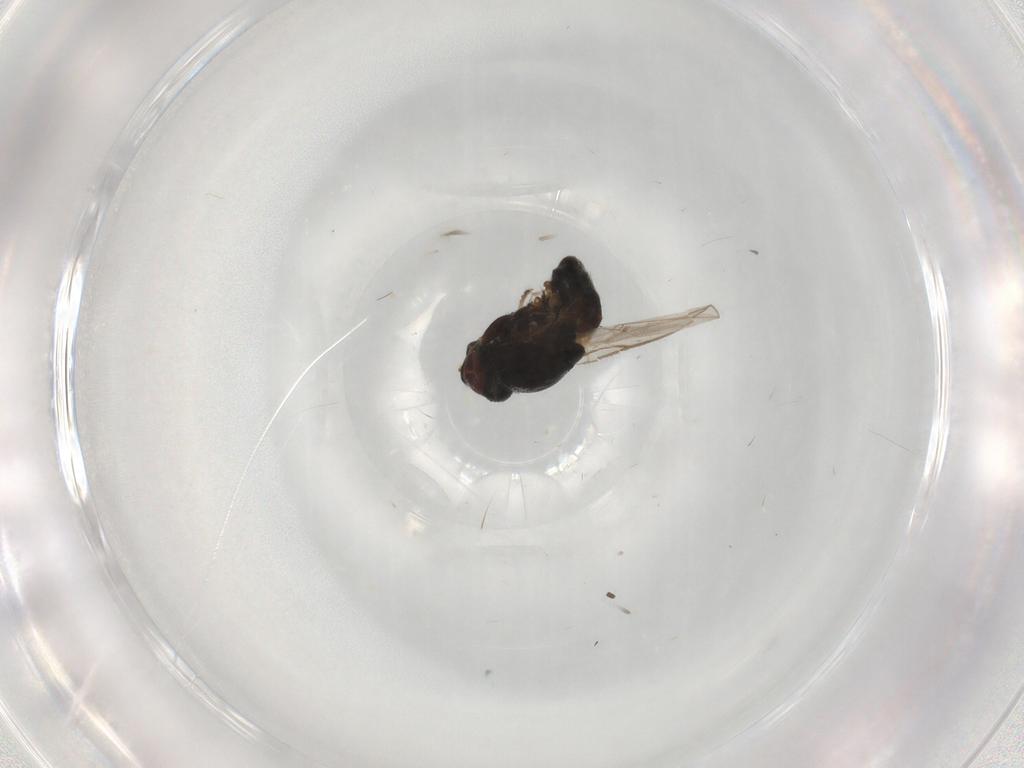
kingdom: Animalia
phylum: Arthropoda
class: Insecta
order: Diptera
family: Chloropidae
